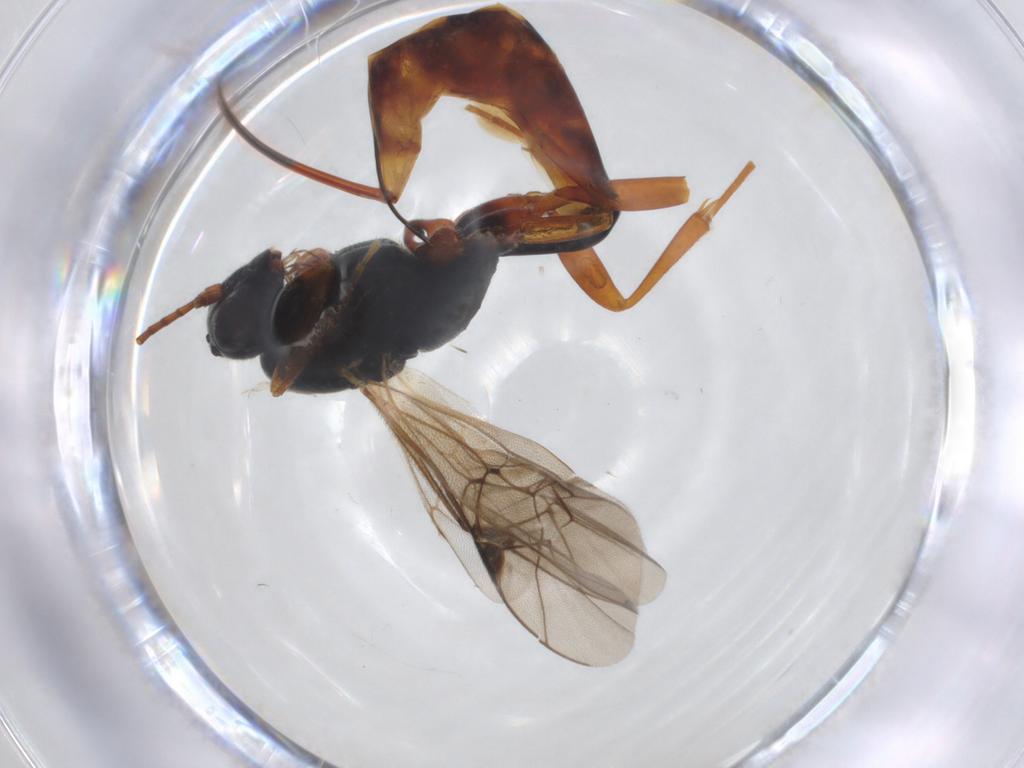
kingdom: Animalia
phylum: Arthropoda
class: Insecta
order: Hymenoptera
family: Ichneumonidae
